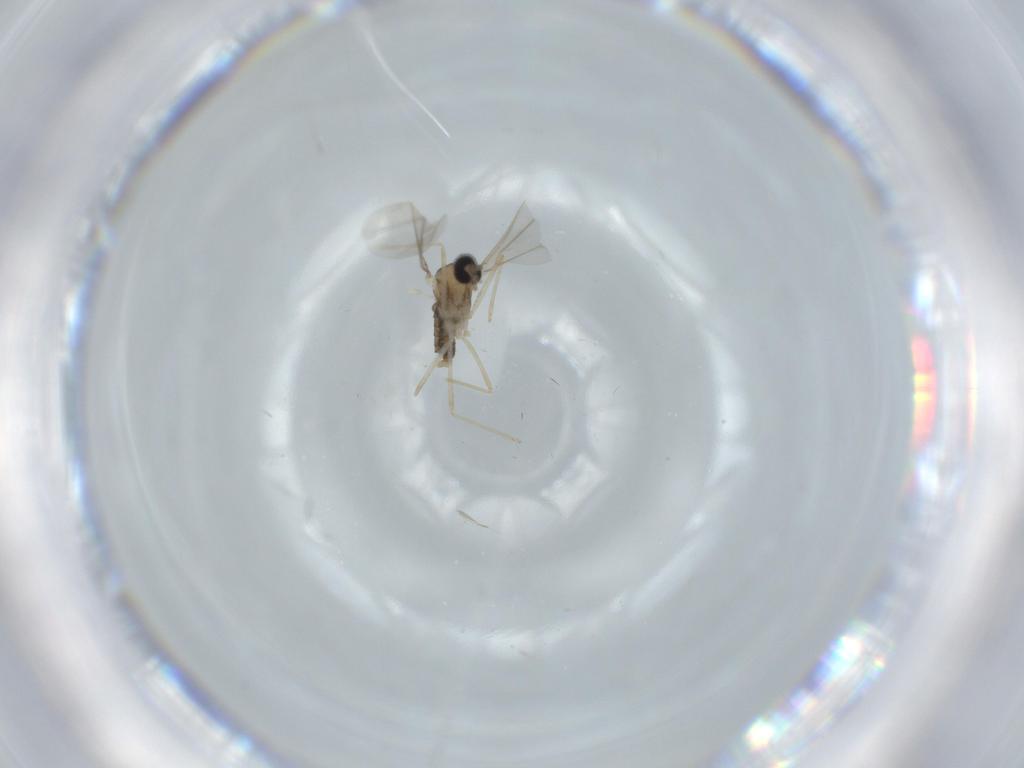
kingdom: Animalia
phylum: Arthropoda
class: Insecta
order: Diptera
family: Cecidomyiidae
